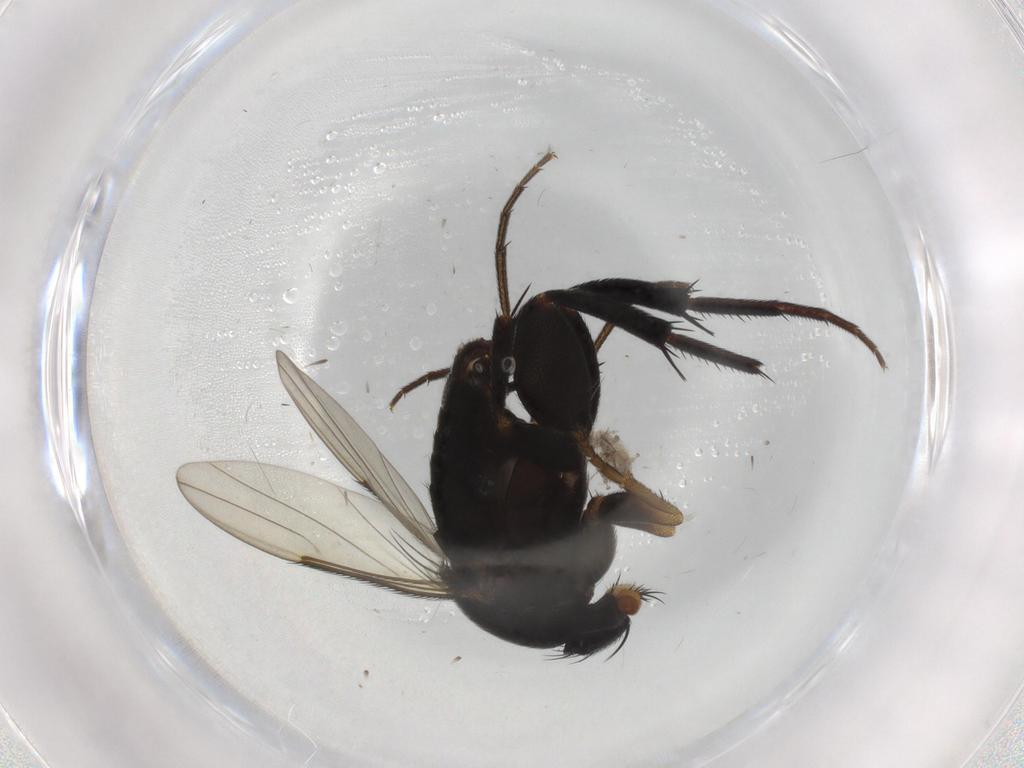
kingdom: Animalia
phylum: Arthropoda
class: Insecta
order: Diptera
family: Phoridae
